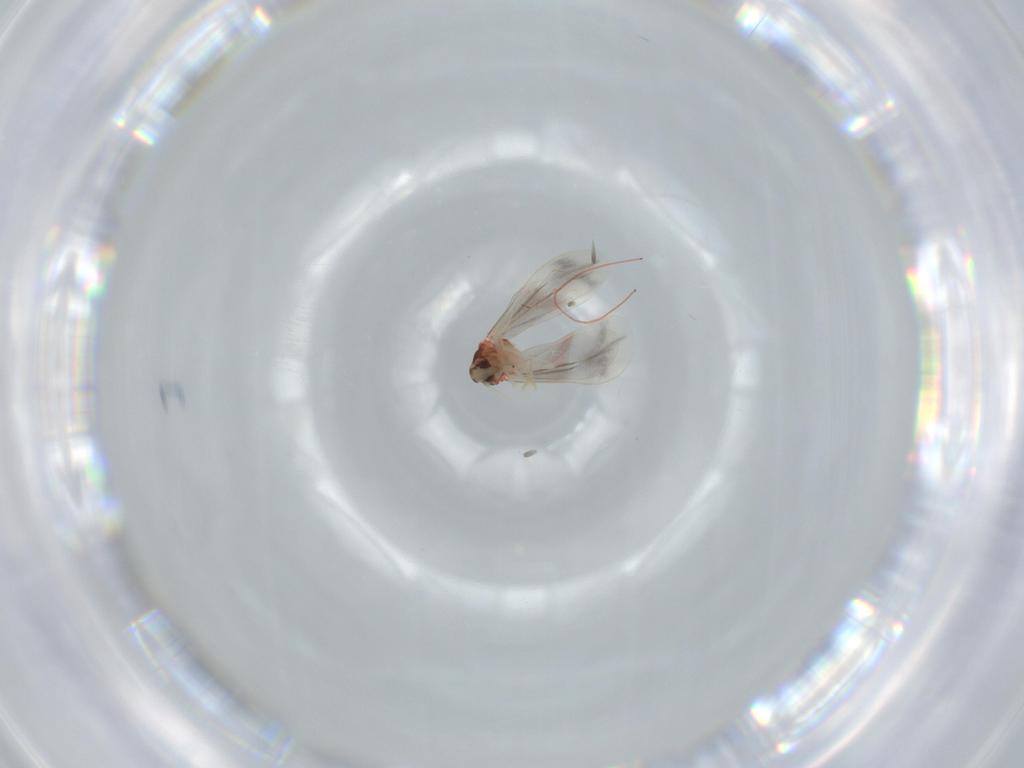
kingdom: Animalia
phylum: Arthropoda
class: Insecta
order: Hemiptera
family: Aleyrodidae
